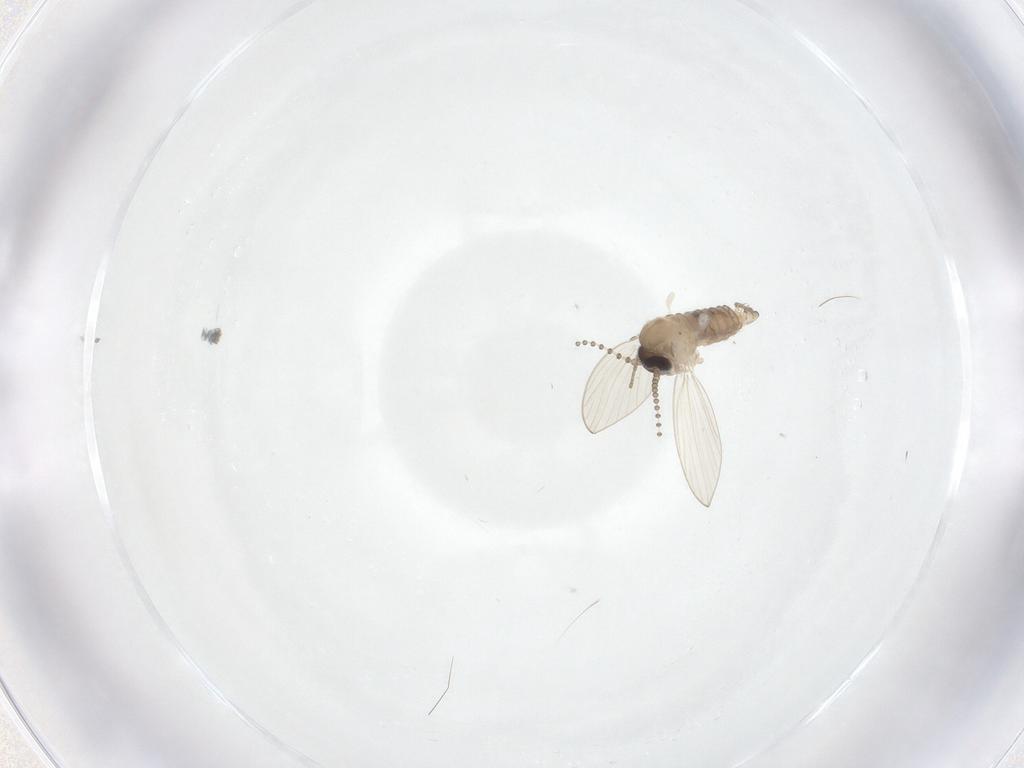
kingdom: Animalia
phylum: Arthropoda
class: Insecta
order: Diptera
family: Psychodidae
